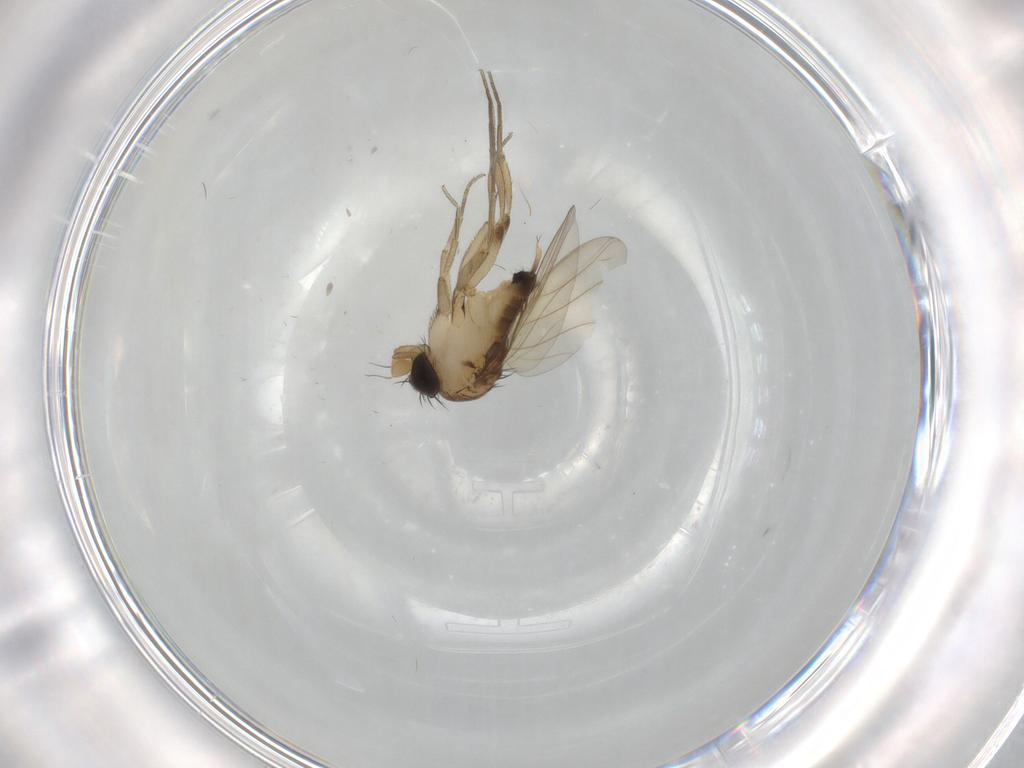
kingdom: Animalia
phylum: Arthropoda
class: Insecta
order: Diptera
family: Phoridae
